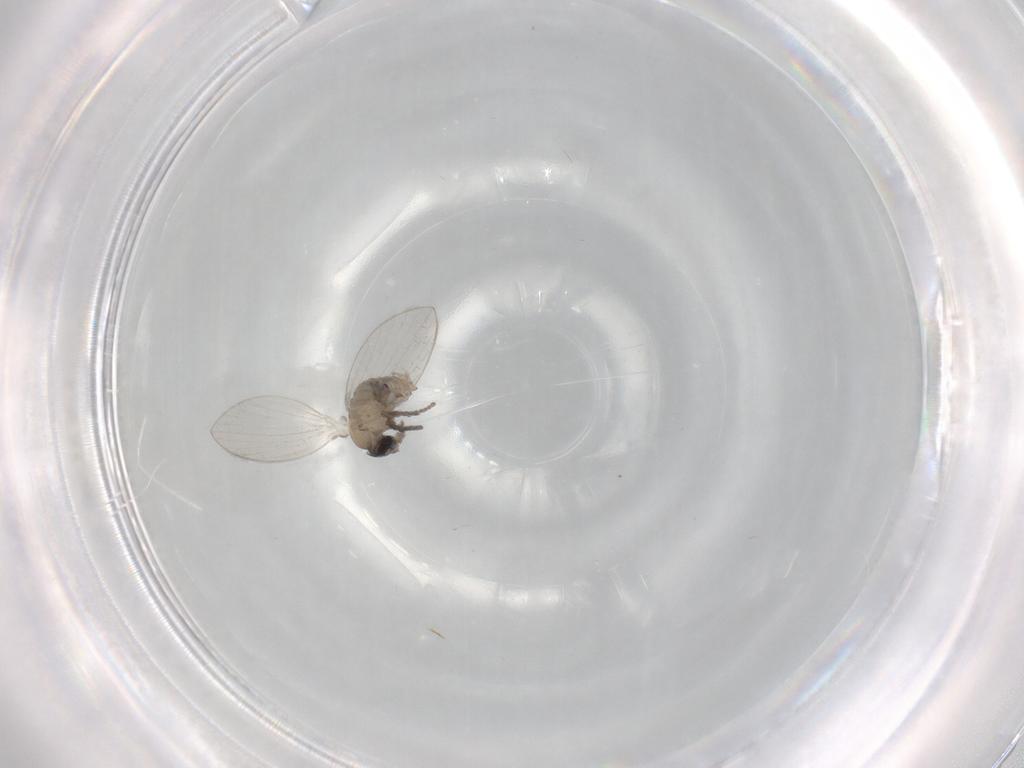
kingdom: Animalia
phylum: Arthropoda
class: Insecta
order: Diptera
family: Psychodidae
